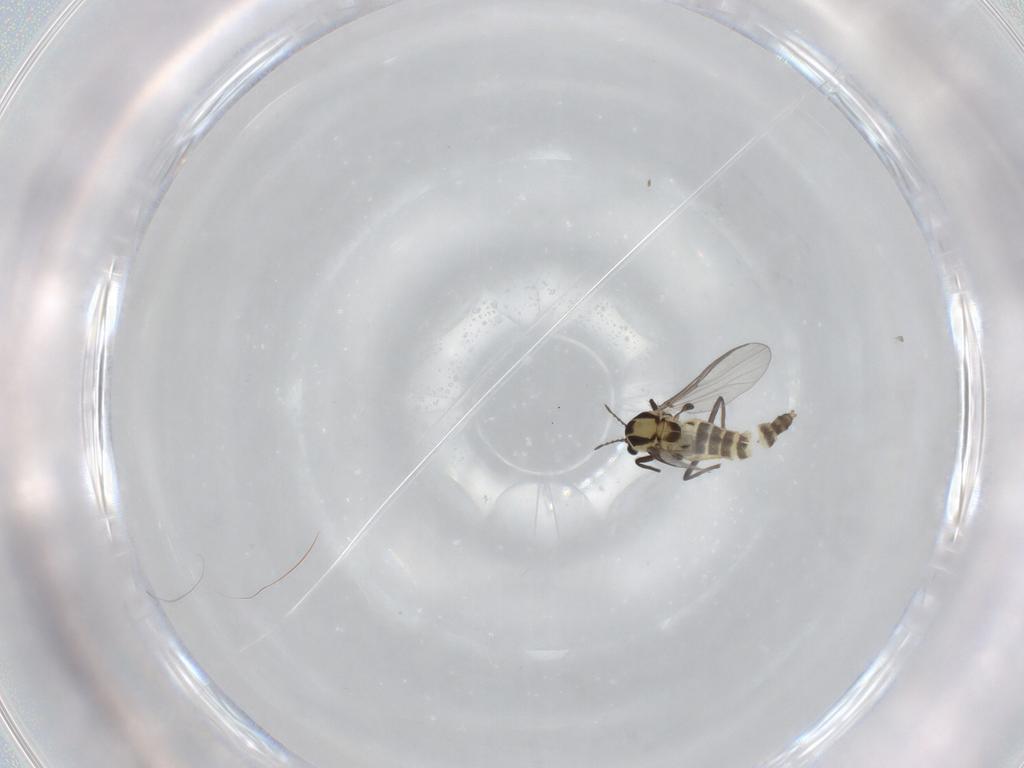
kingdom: Animalia
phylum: Arthropoda
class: Insecta
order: Diptera
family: Chironomidae
